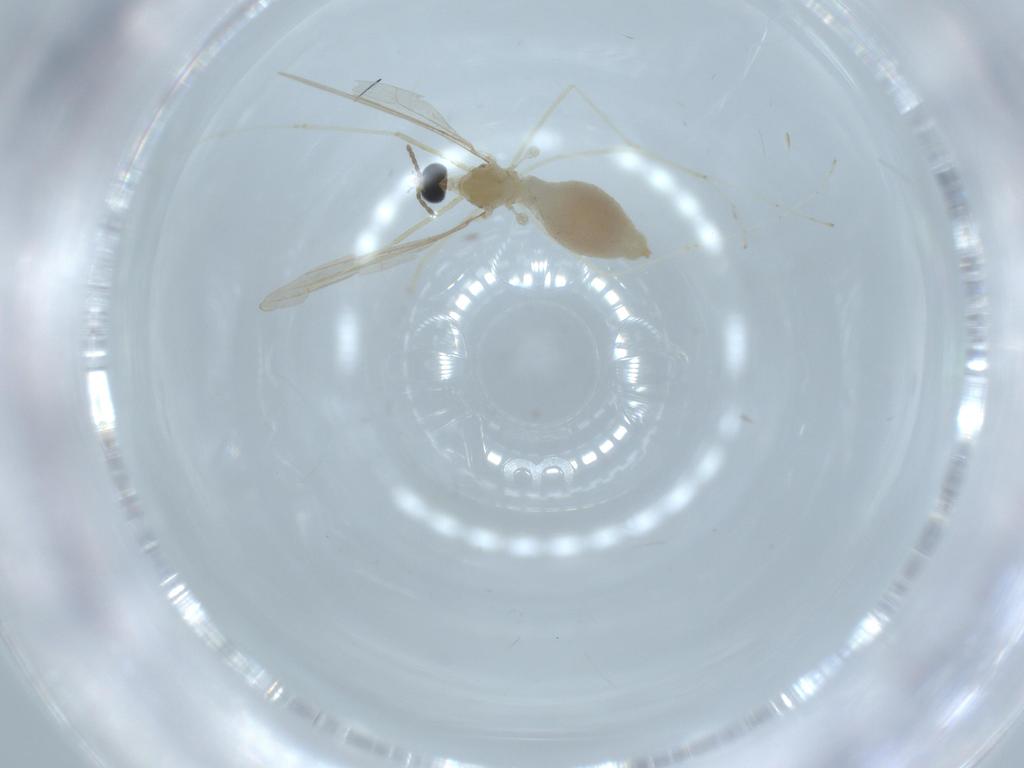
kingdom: Animalia
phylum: Arthropoda
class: Insecta
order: Diptera
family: Cecidomyiidae
